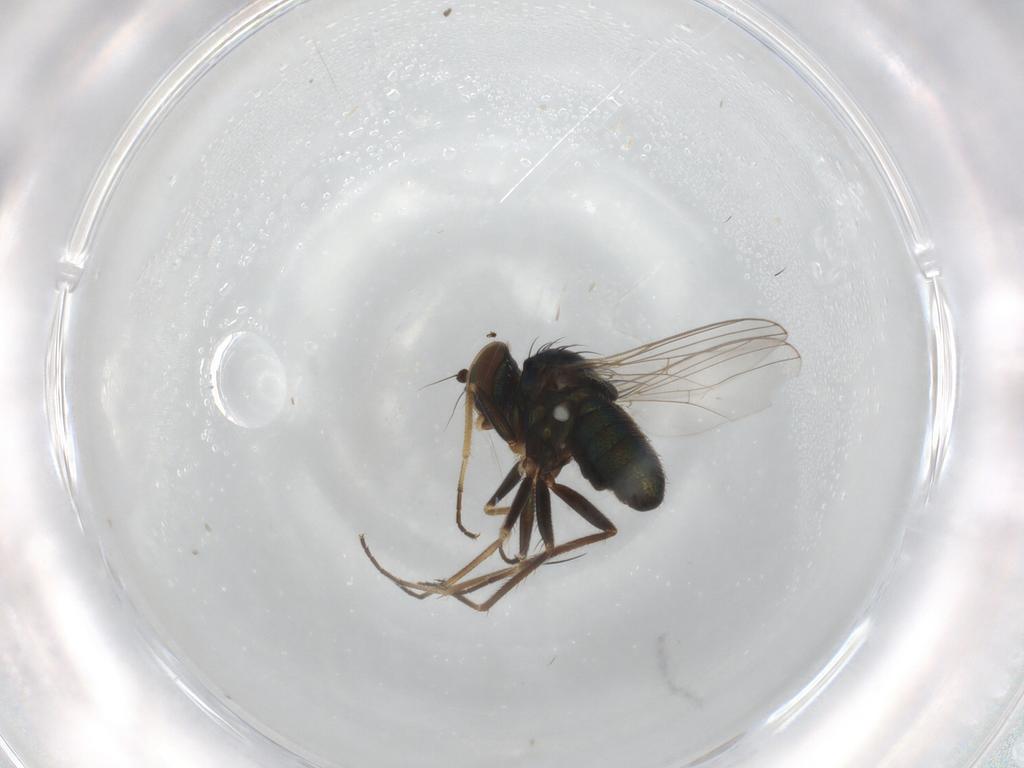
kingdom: Animalia
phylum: Arthropoda
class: Insecta
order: Diptera
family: Dolichopodidae
